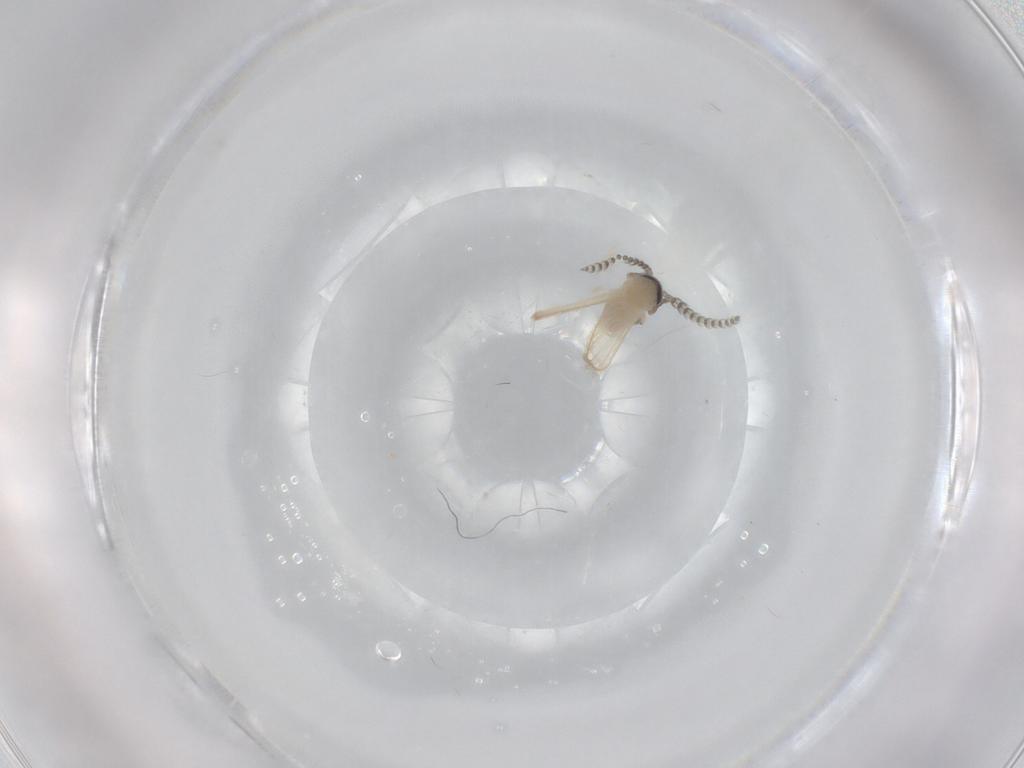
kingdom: Animalia
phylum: Arthropoda
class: Insecta
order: Diptera
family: Psychodidae
